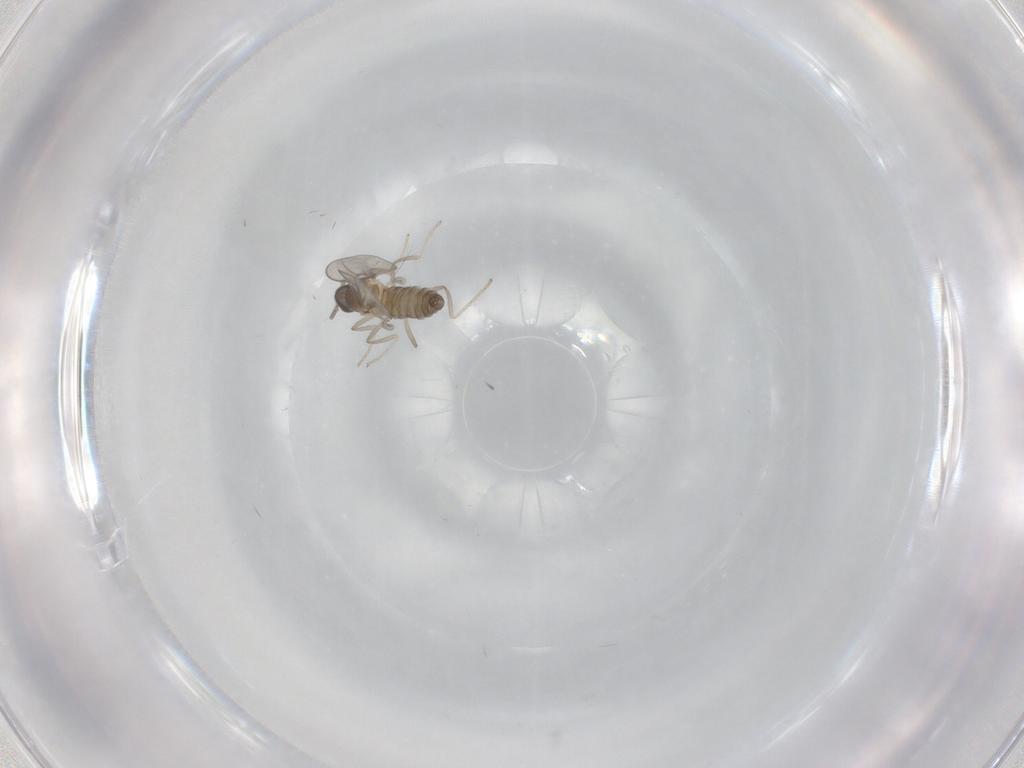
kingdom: Animalia
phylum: Arthropoda
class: Insecta
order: Diptera
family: Cecidomyiidae
